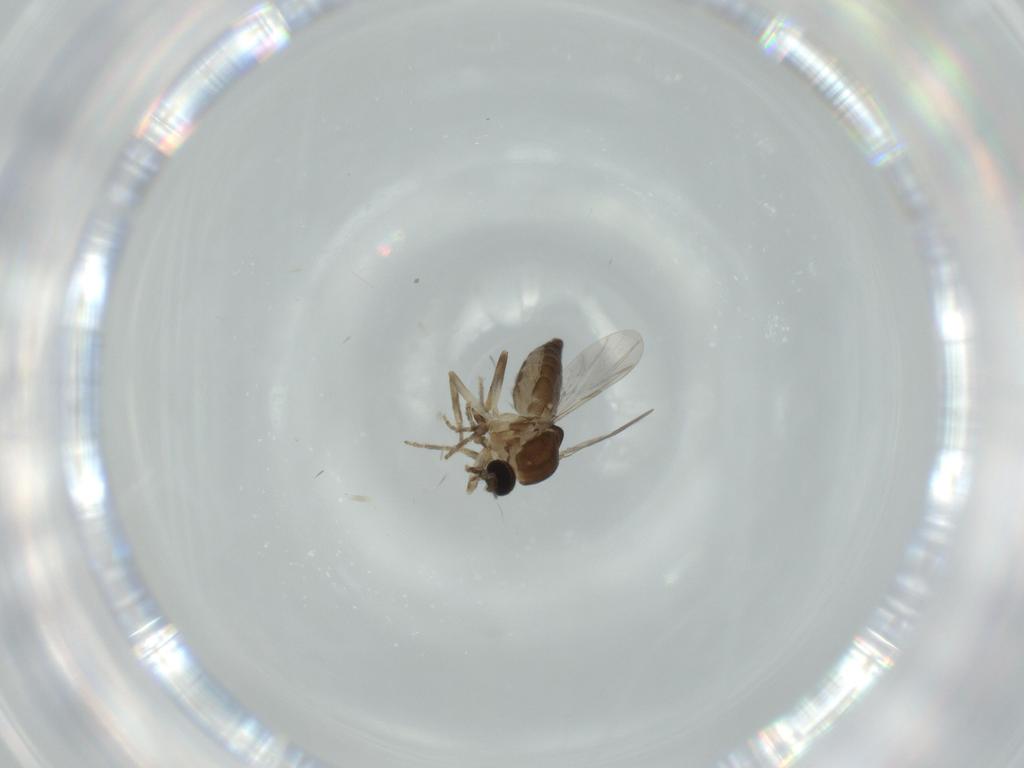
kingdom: Animalia
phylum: Arthropoda
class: Insecta
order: Diptera
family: Ceratopogonidae
